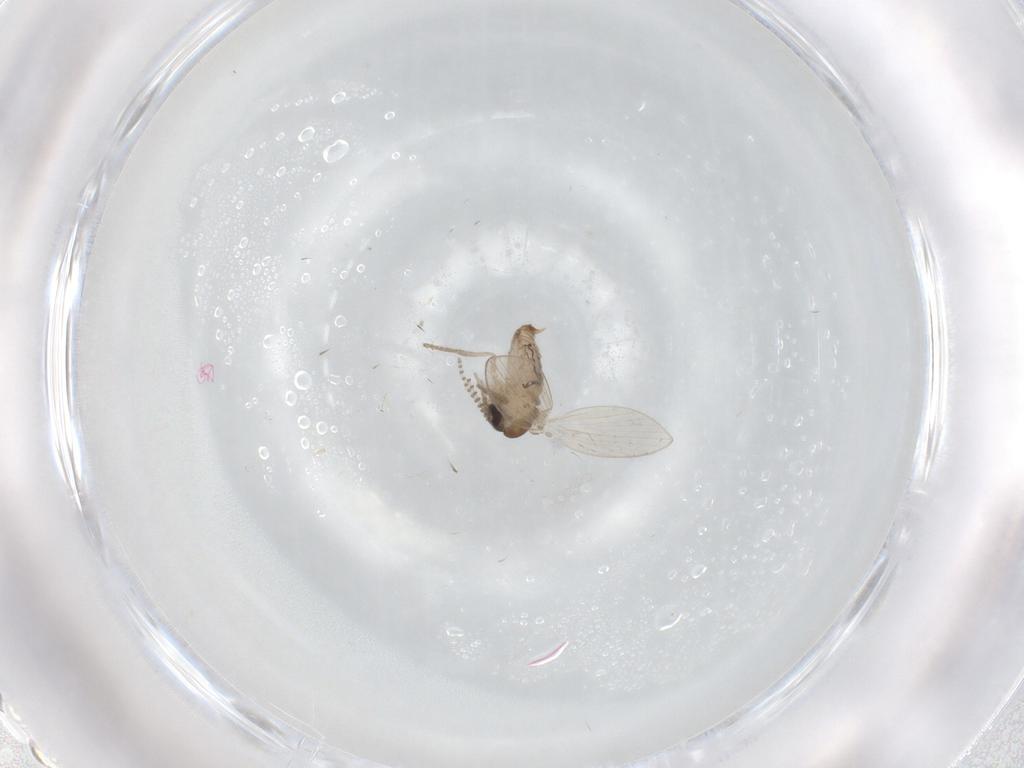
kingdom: Animalia
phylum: Arthropoda
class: Insecta
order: Diptera
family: Psychodidae
